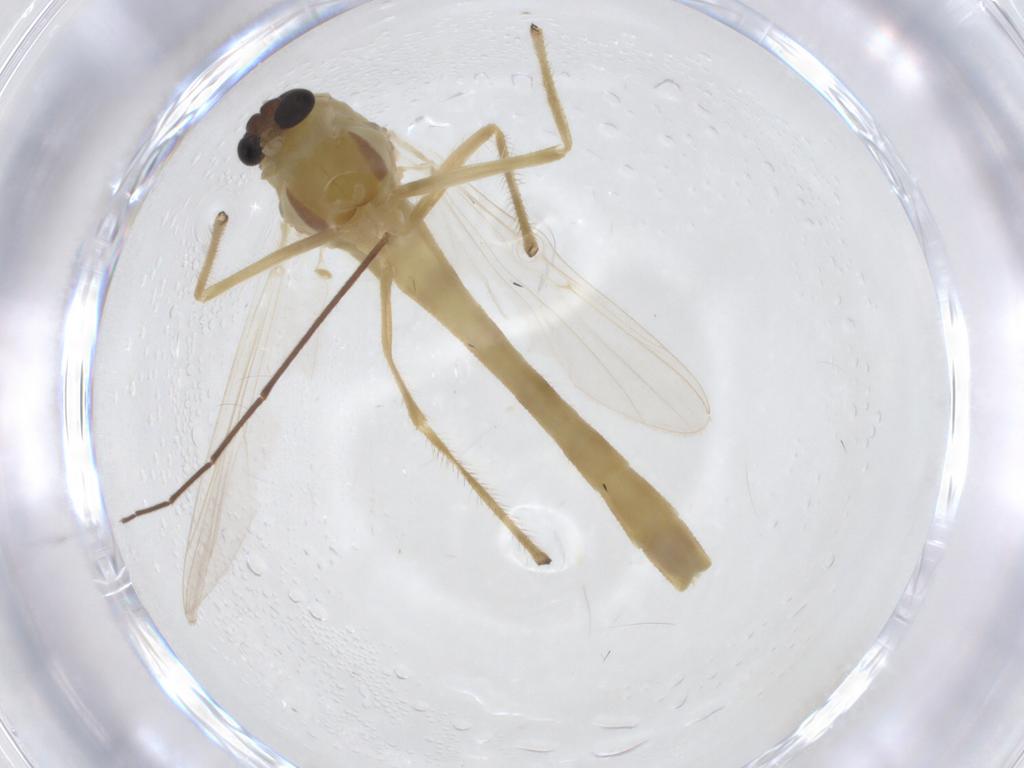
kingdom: Animalia
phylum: Arthropoda
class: Insecta
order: Diptera
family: Chironomidae
